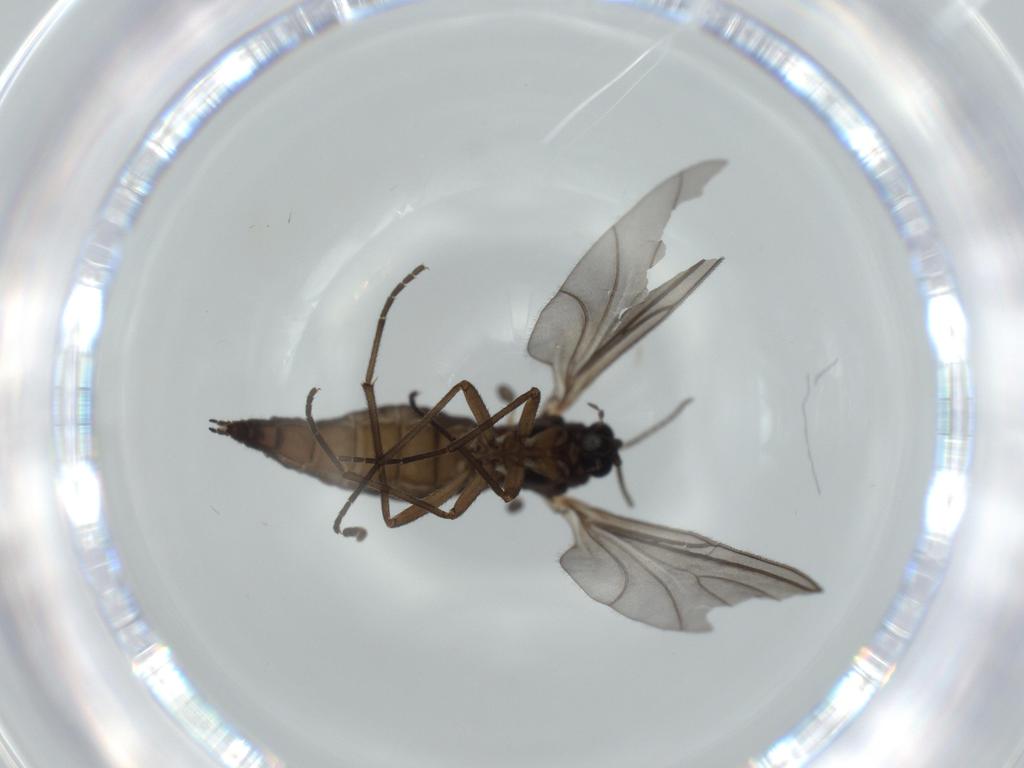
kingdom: Animalia
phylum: Arthropoda
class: Insecta
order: Diptera
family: Sciaridae
